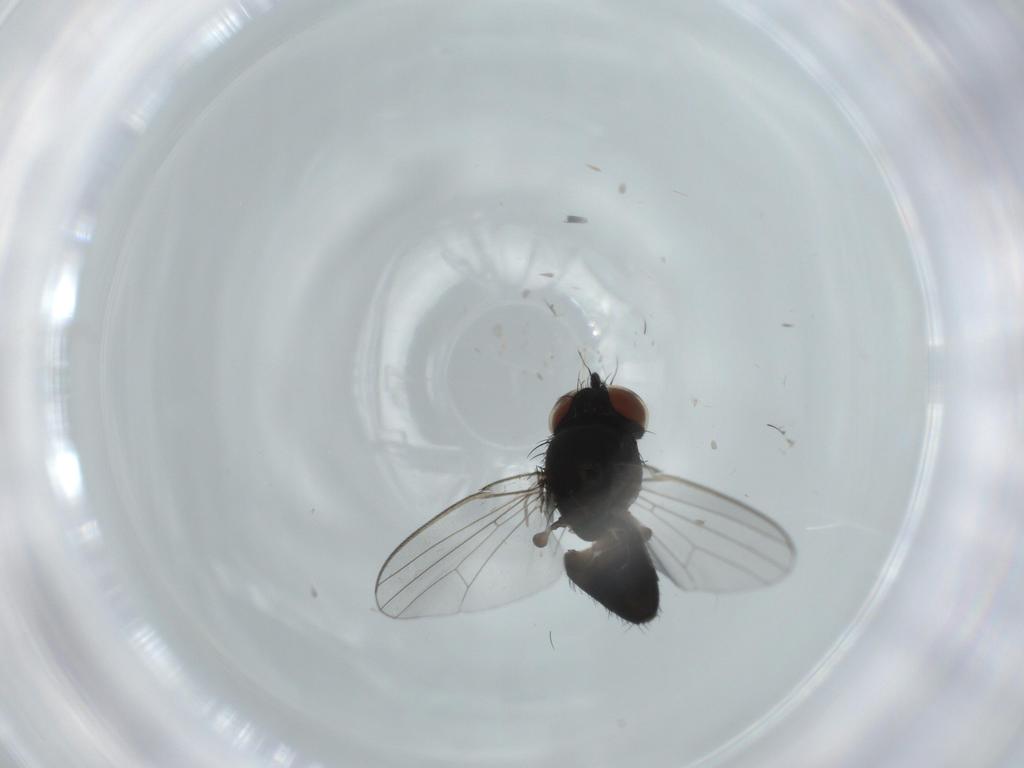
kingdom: Animalia
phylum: Arthropoda
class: Insecta
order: Diptera
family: Milichiidae
